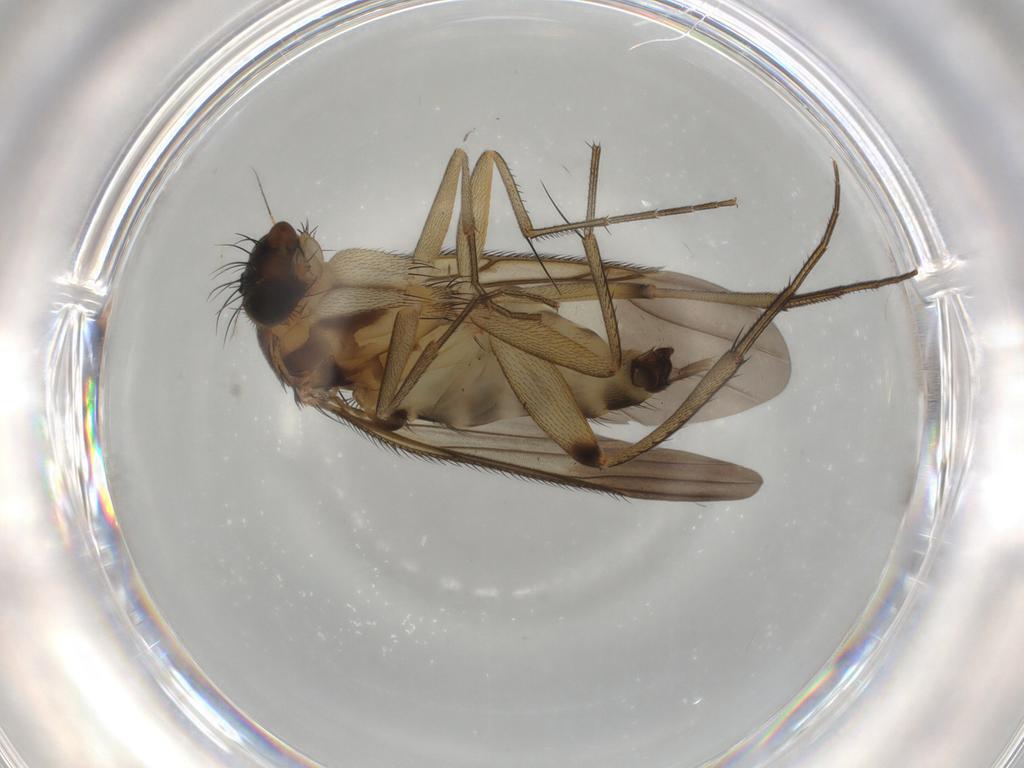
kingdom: Animalia
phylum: Arthropoda
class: Insecta
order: Diptera
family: Phoridae
